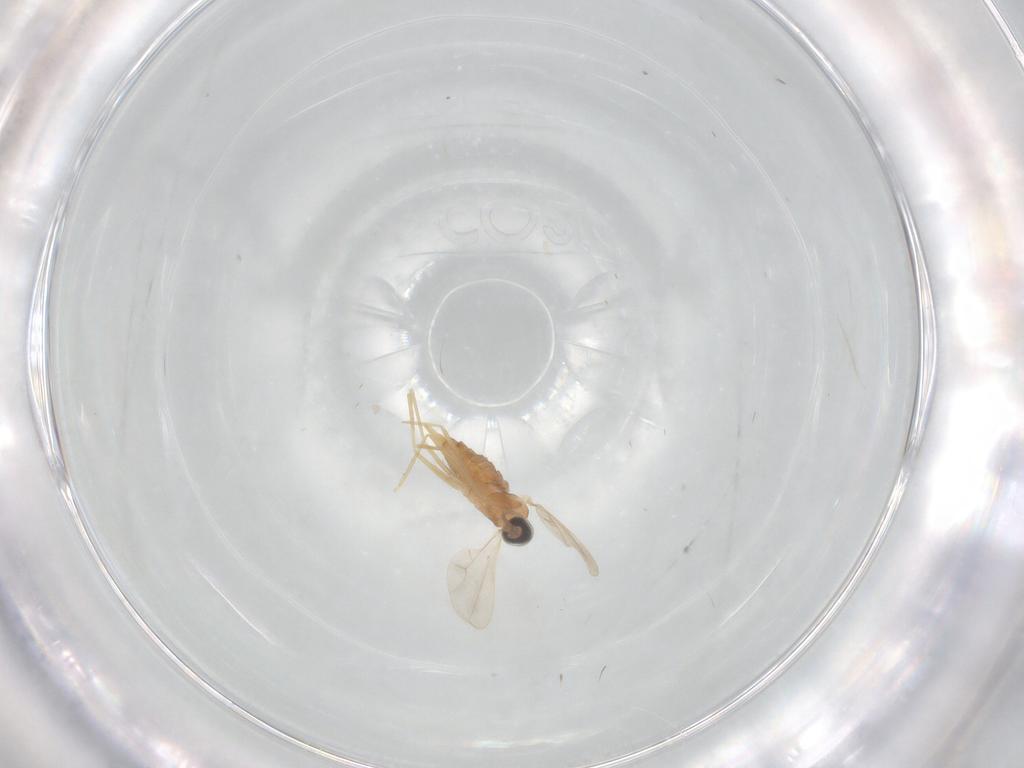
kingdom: Animalia
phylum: Arthropoda
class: Insecta
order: Diptera
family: Cecidomyiidae
